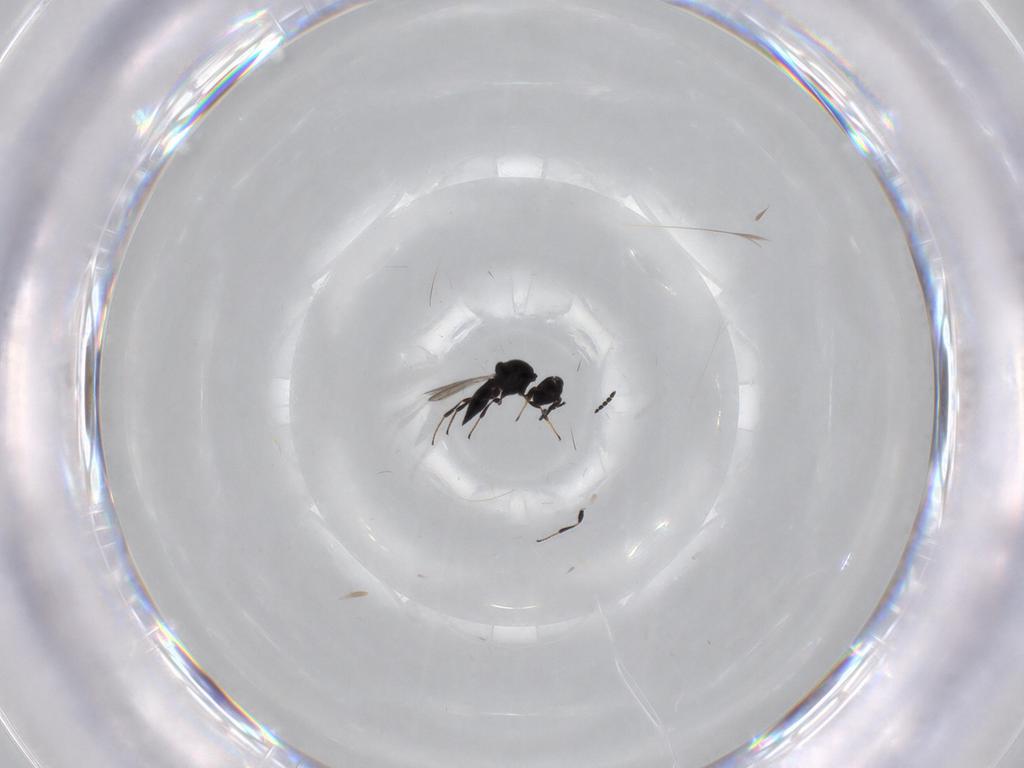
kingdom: Animalia
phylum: Arthropoda
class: Insecta
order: Hymenoptera
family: Platygastridae
